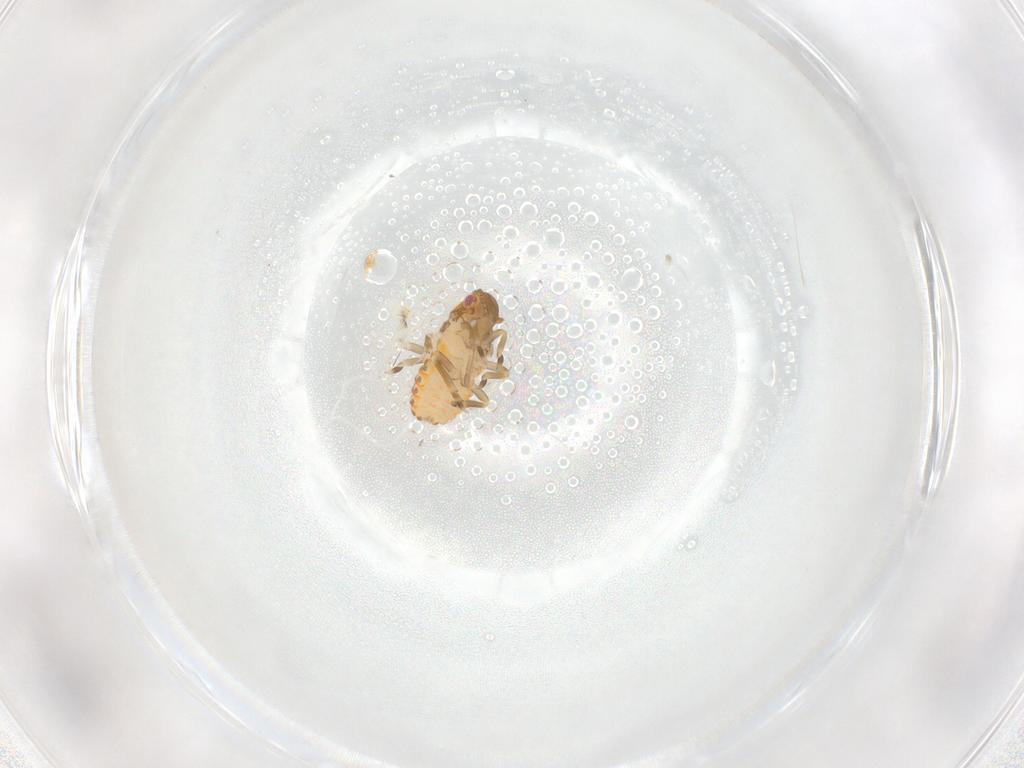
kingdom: Animalia
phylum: Arthropoda
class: Insecta
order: Hemiptera
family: Flatidae
